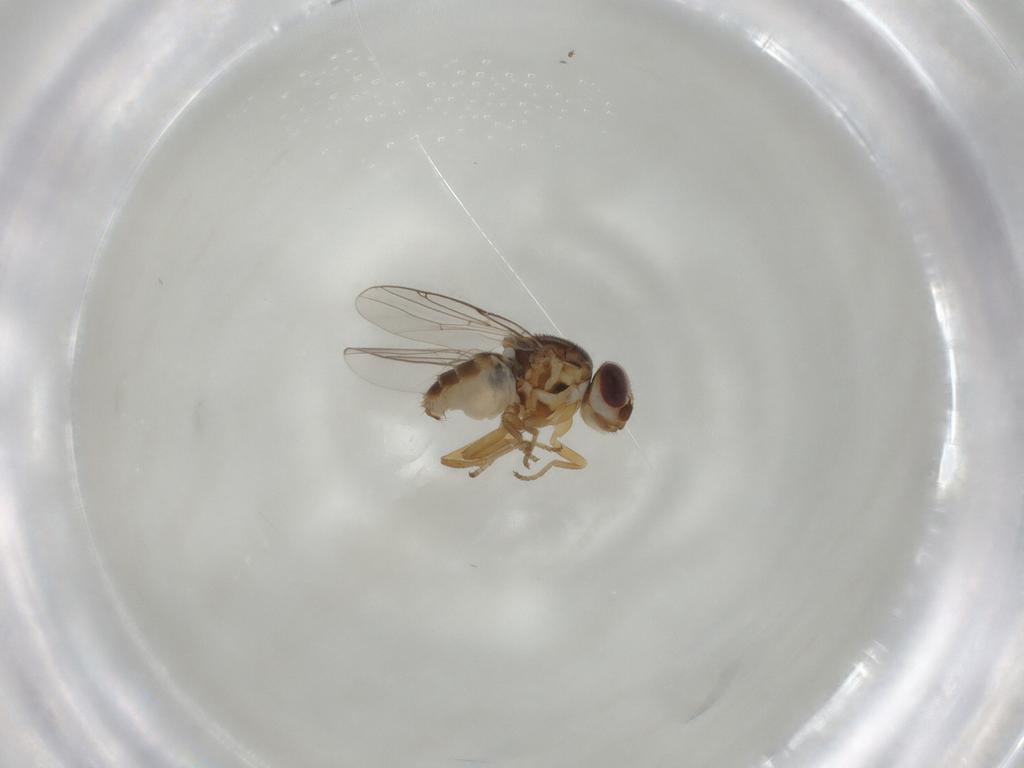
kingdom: Animalia
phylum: Arthropoda
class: Insecta
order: Diptera
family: Chloropidae
